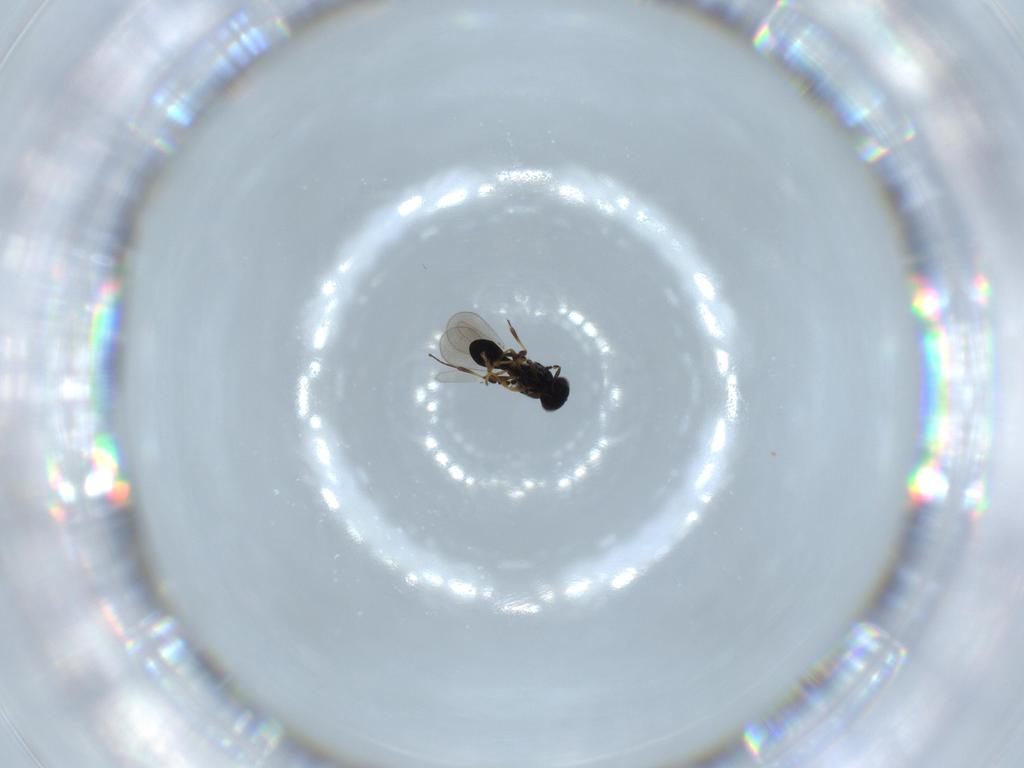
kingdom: Animalia
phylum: Arthropoda
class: Insecta
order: Hymenoptera
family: Platygastridae
